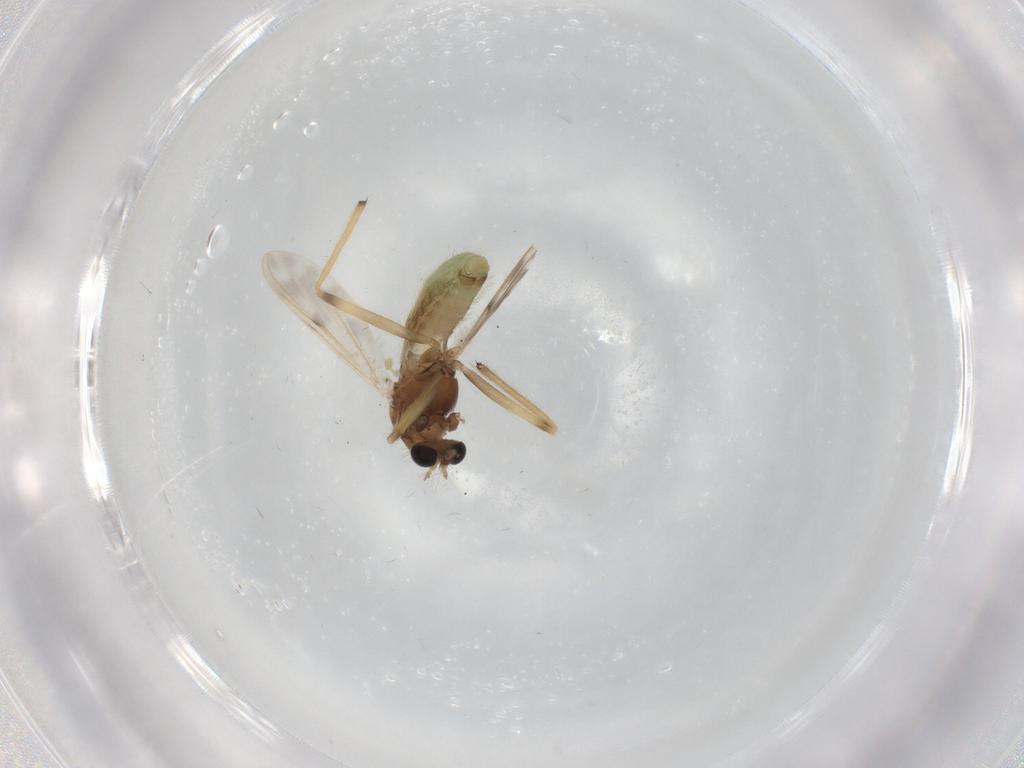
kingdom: Animalia
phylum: Arthropoda
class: Insecta
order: Diptera
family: Chironomidae
